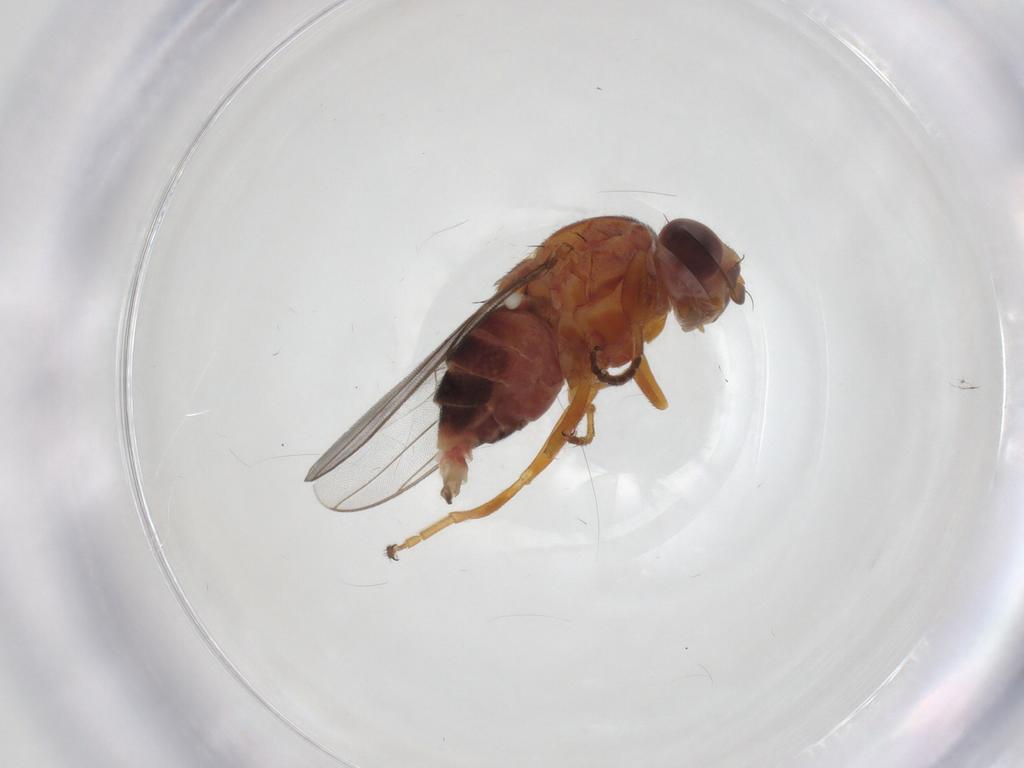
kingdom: Animalia
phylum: Arthropoda
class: Insecta
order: Diptera
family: Chloropidae
